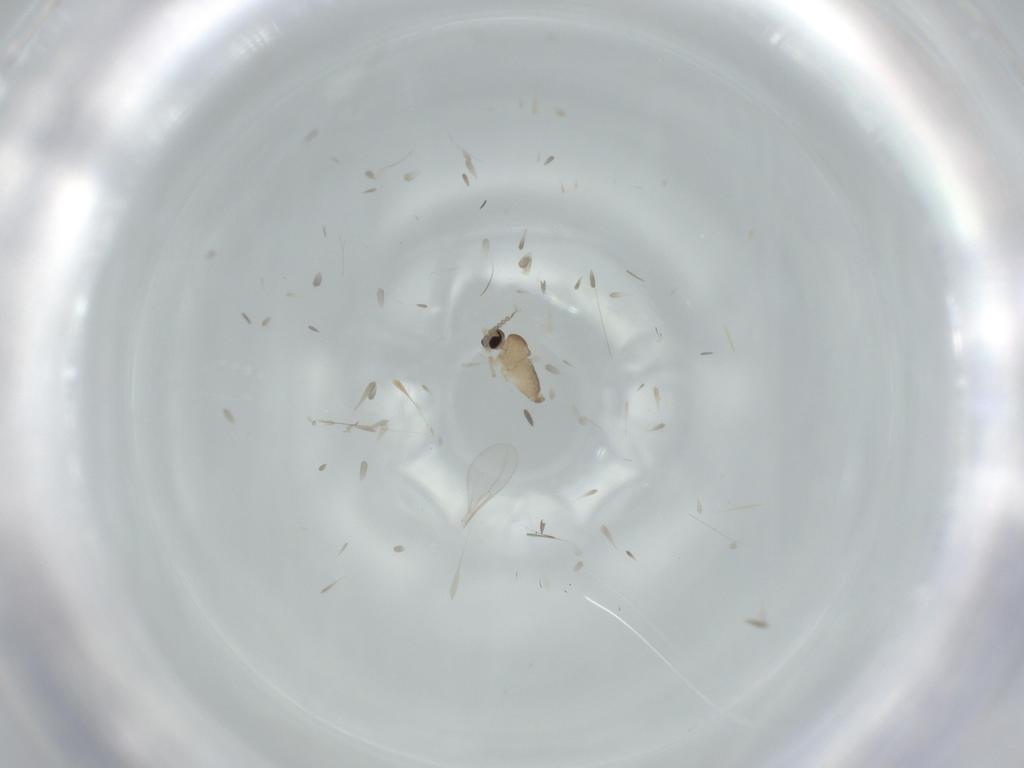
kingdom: Animalia
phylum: Arthropoda
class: Insecta
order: Diptera
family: Cecidomyiidae
